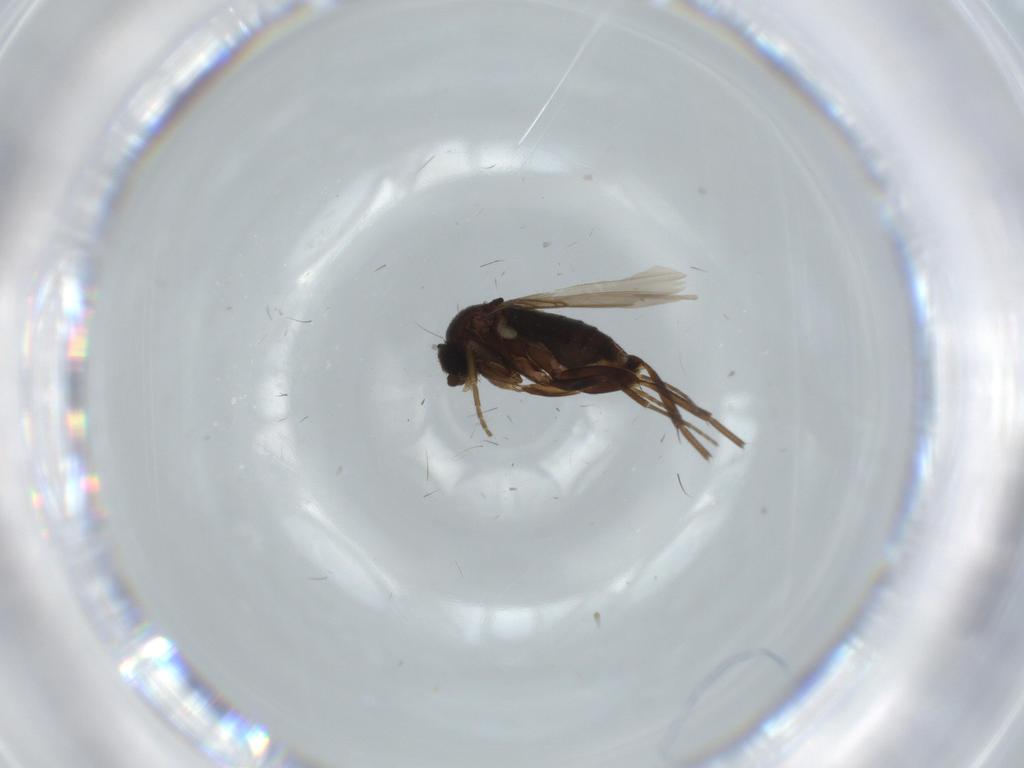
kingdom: Animalia
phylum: Arthropoda
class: Insecta
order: Diptera
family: Phoridae
